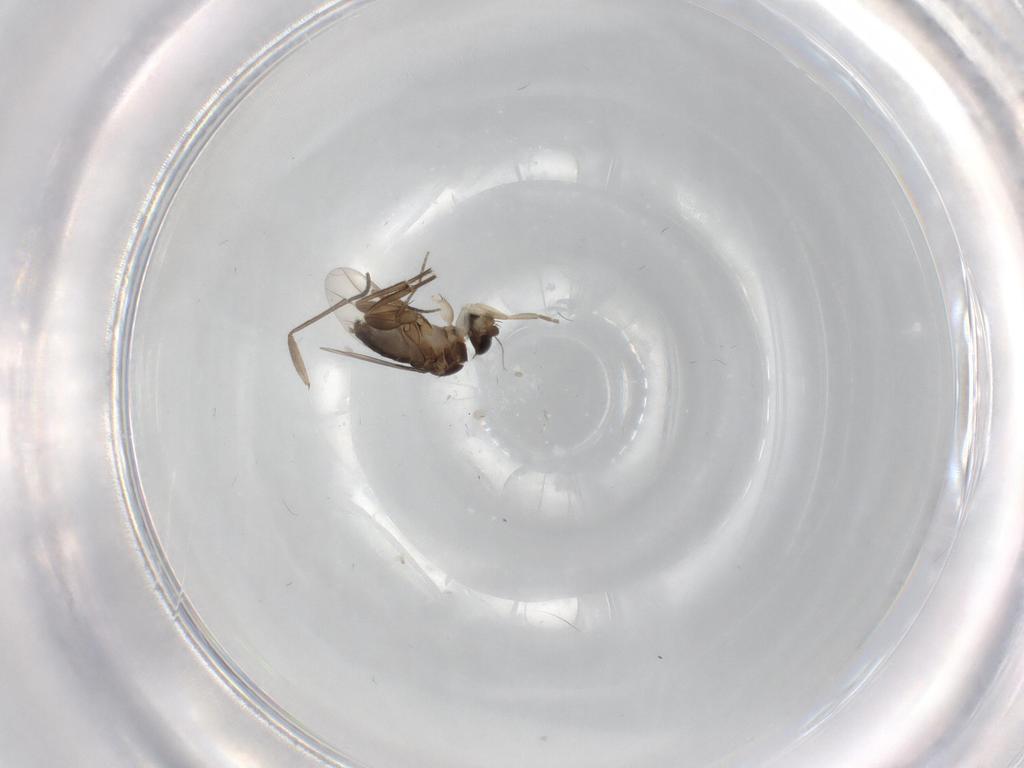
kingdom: Animalia
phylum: Arthropoda
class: Insecta
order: Diptera
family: Phoridae
